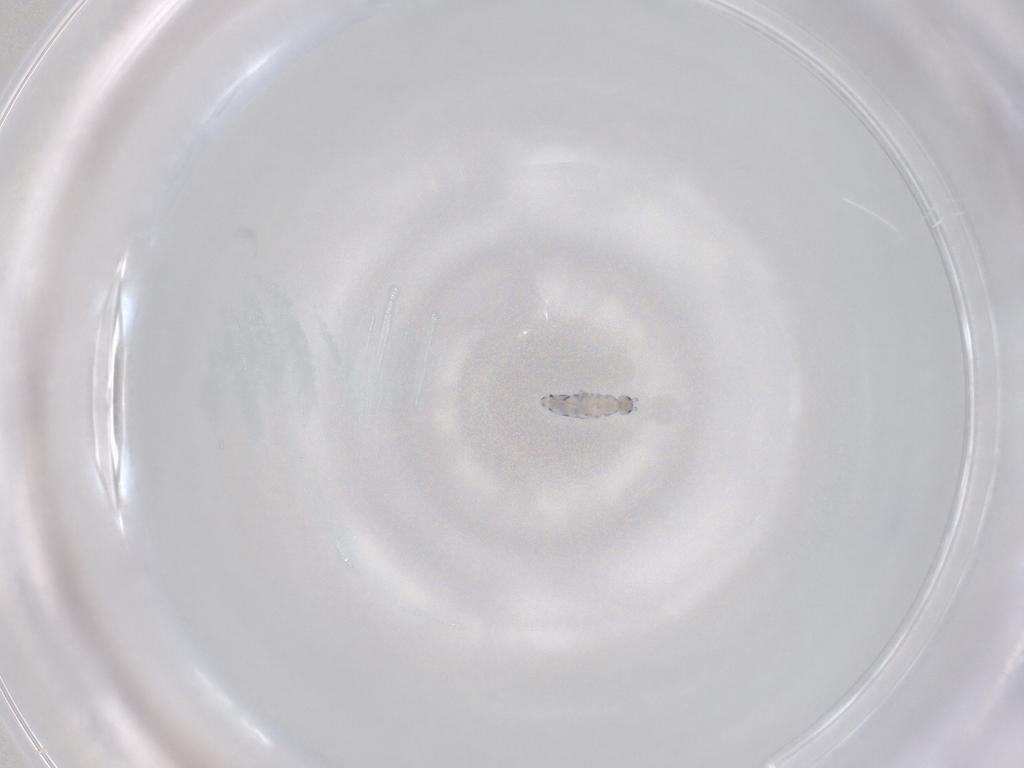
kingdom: Animalia
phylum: Arthropoda
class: Collembola
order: Entomobryomorpha
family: Entomobryidae
